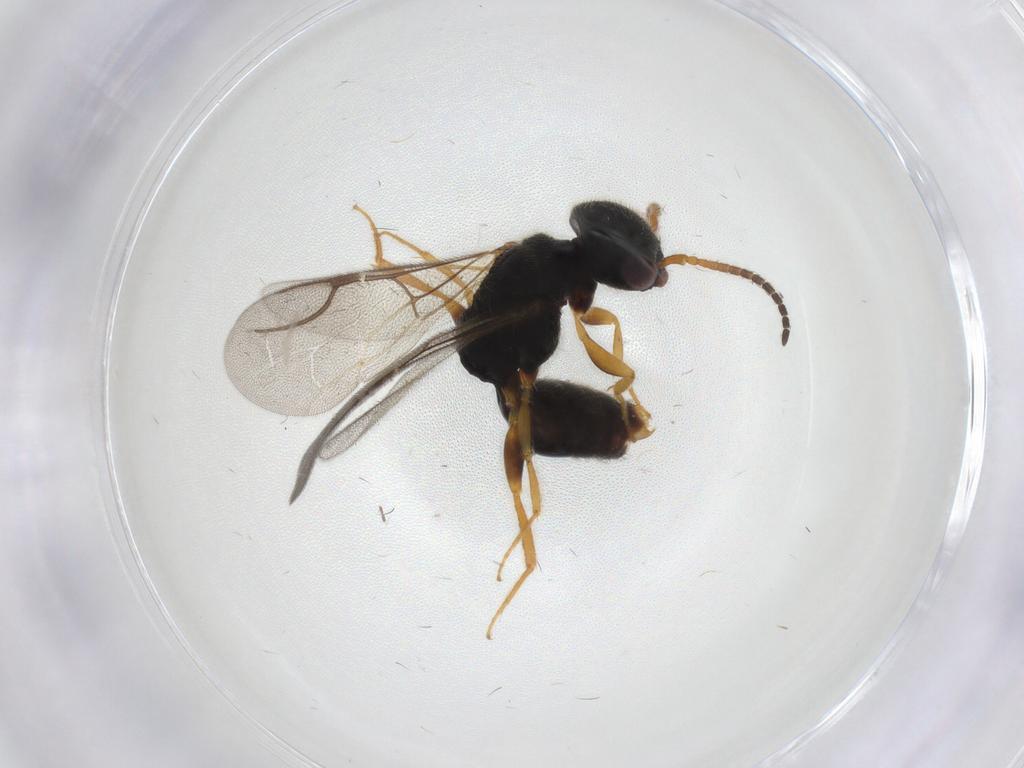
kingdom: Animalia
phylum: Arthropoda
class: Insecta
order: Hymenoptera
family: Bethylidae
